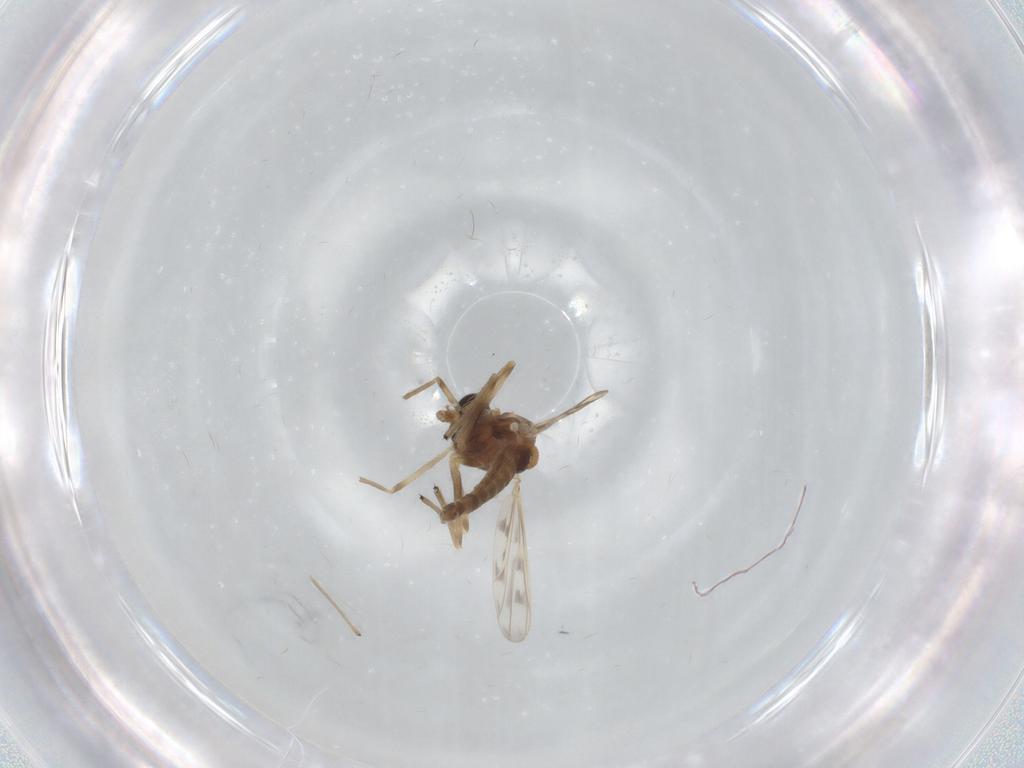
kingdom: Animalia
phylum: Arthropoda
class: Insecta
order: Diptera
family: Chironomidae
